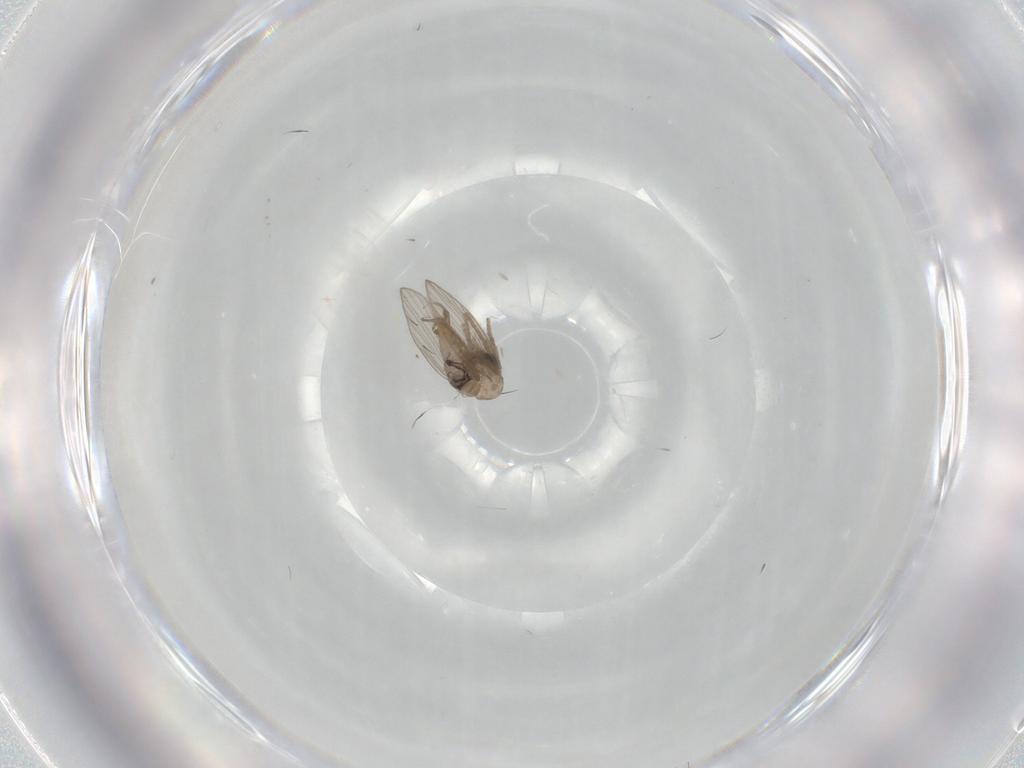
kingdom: Animalia
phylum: Arthropoda
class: Insecta
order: Diptera
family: Psychodidae
